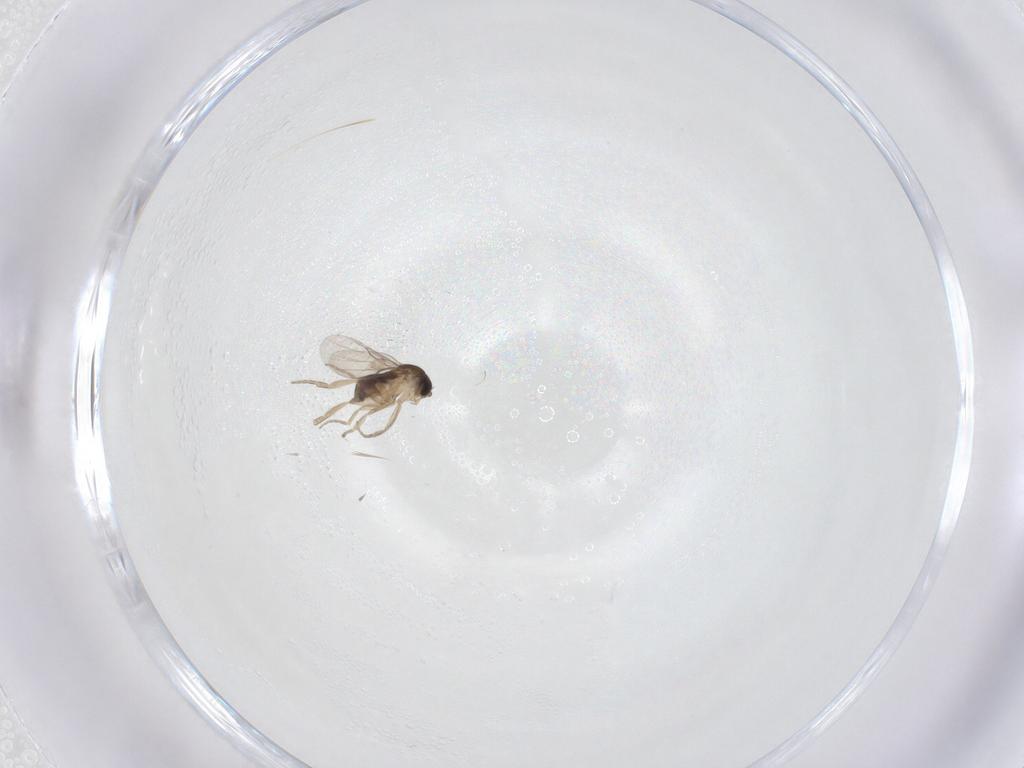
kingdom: Animalia
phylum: Arthropoda
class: Insecta
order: Diptera
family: Phoridae
